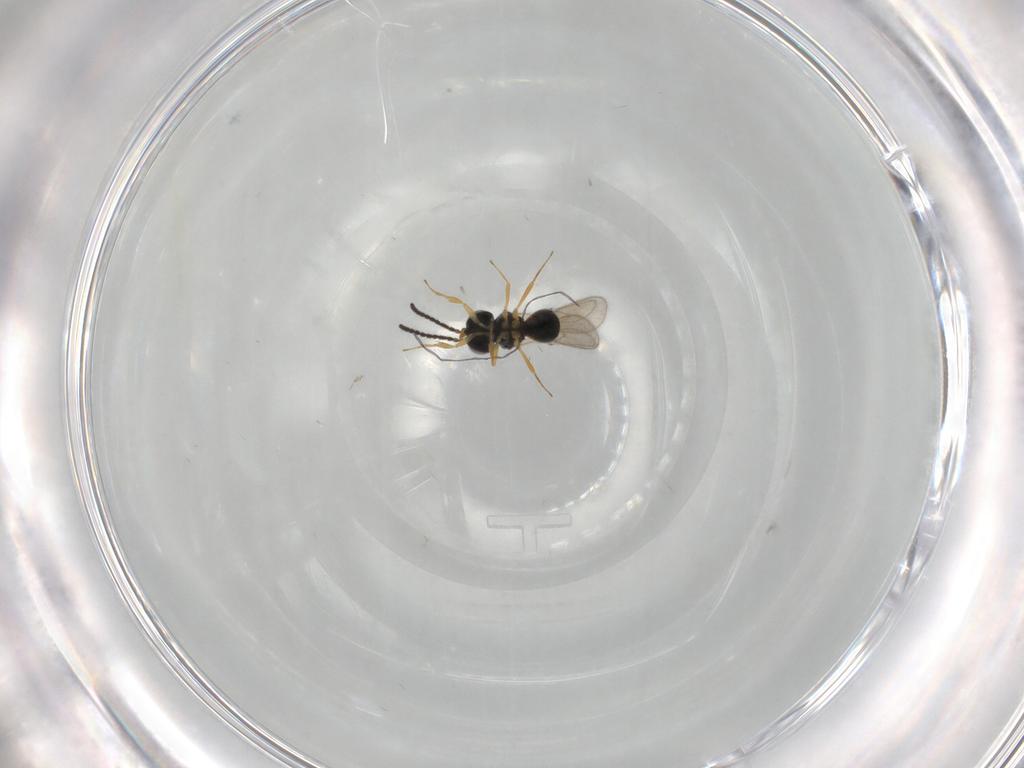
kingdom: Animalia
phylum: Arthropoda
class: Insecta
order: Hymenoptera
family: Scelionidae
